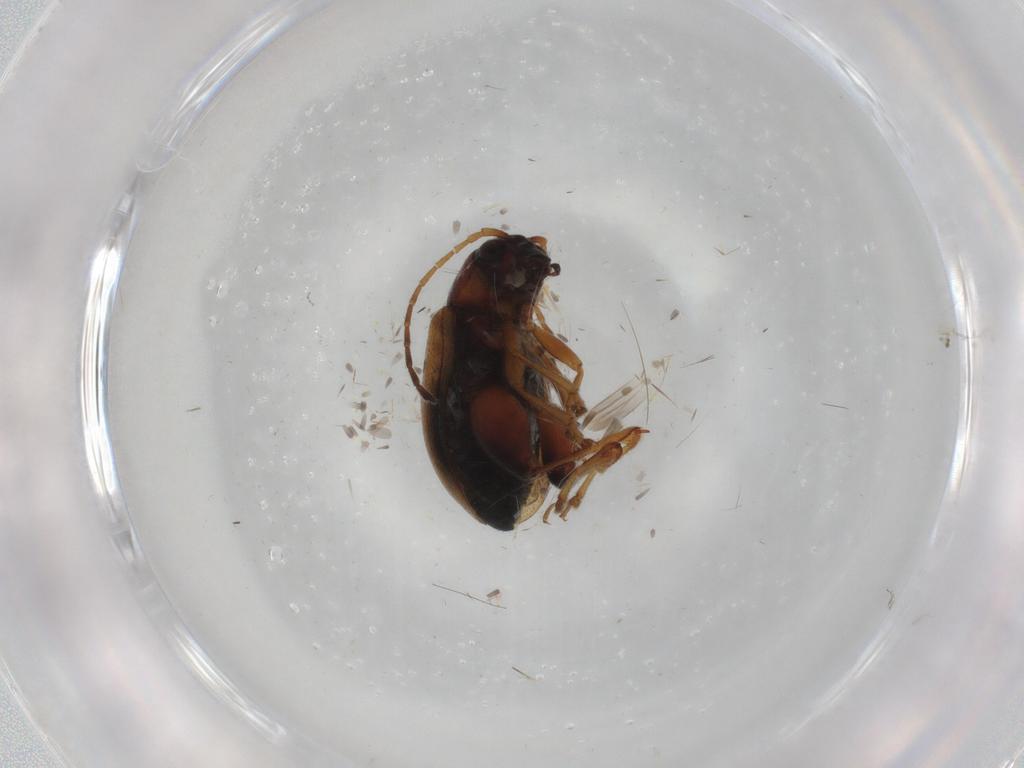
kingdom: Animalia
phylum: Arthropoda
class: Insecta
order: Coleoptera
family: Chrysomelidae
